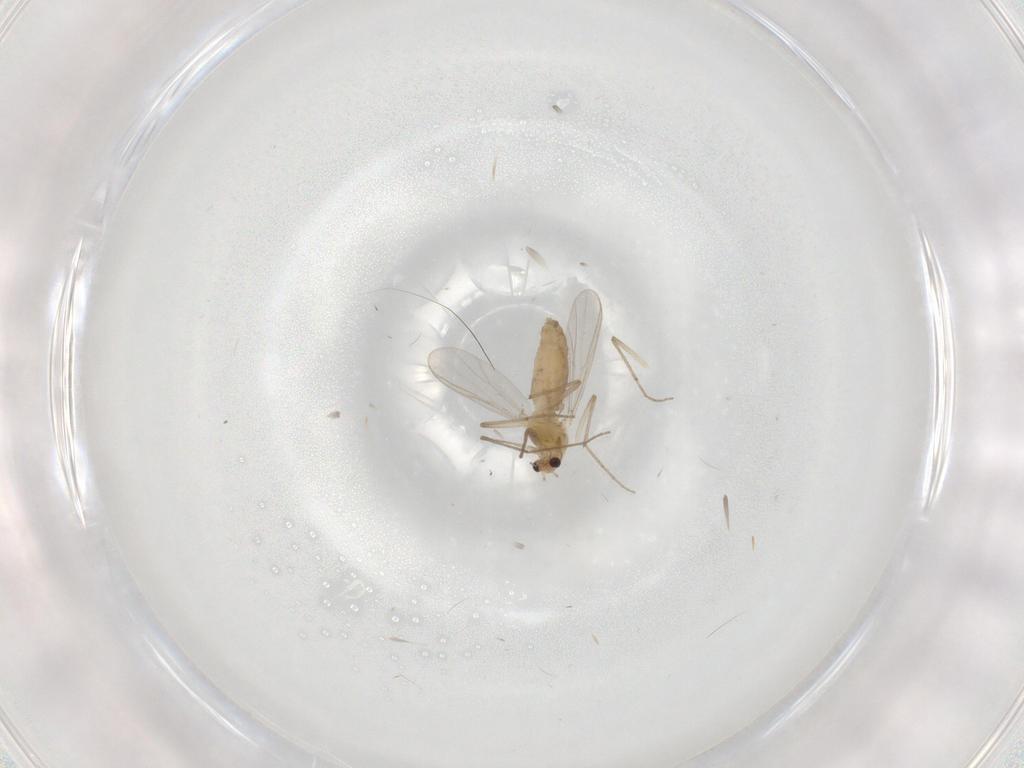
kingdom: Animalia
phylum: Arthropoda
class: Insecta
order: Diptera
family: Chironomidae
